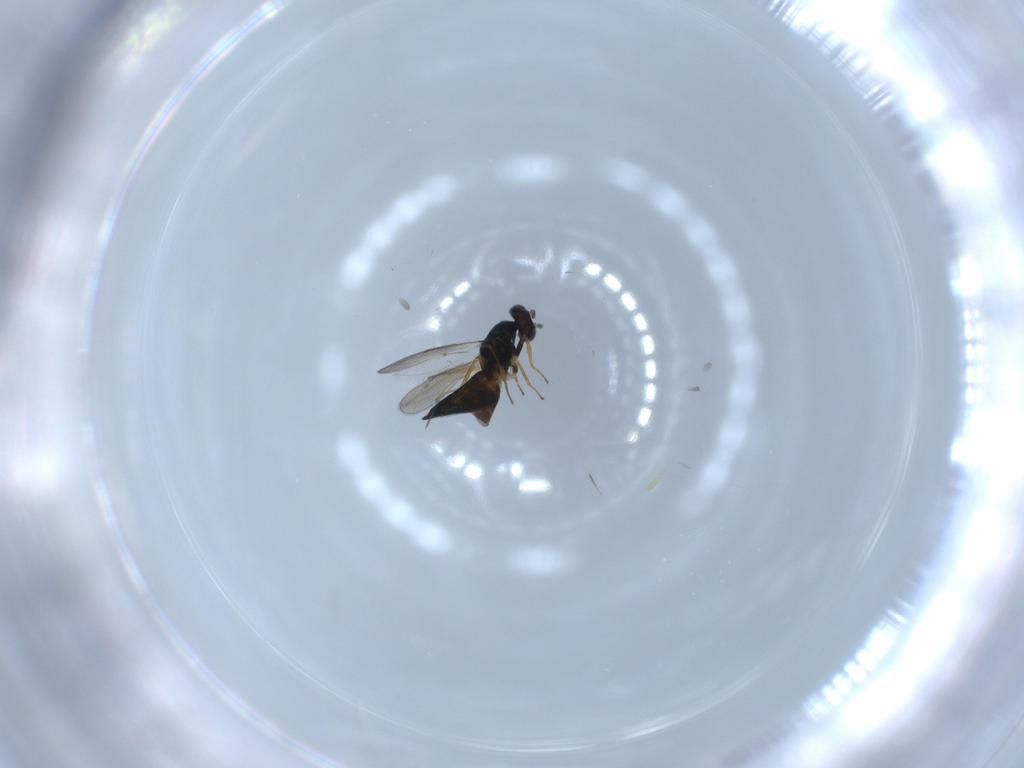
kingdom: Animalia
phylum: Arthropoda
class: Insecta
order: Hymenoptera
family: Eulophidae
